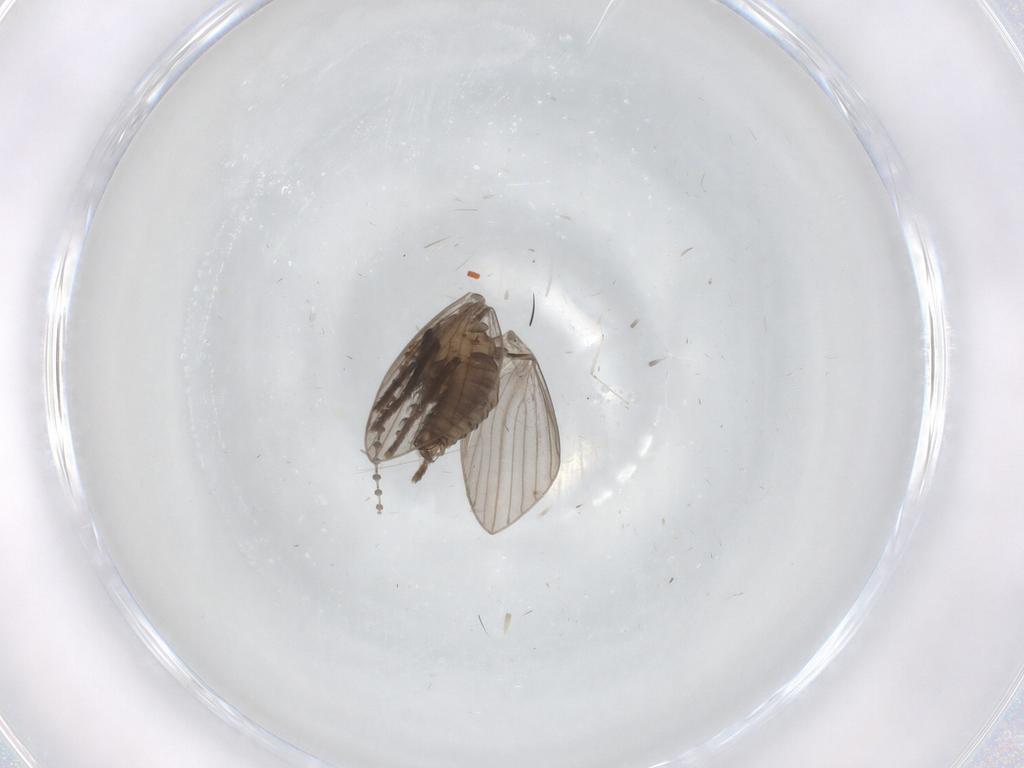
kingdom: Animalia
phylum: Arthropoda
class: Insecta
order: Diptera
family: Psychodidae
